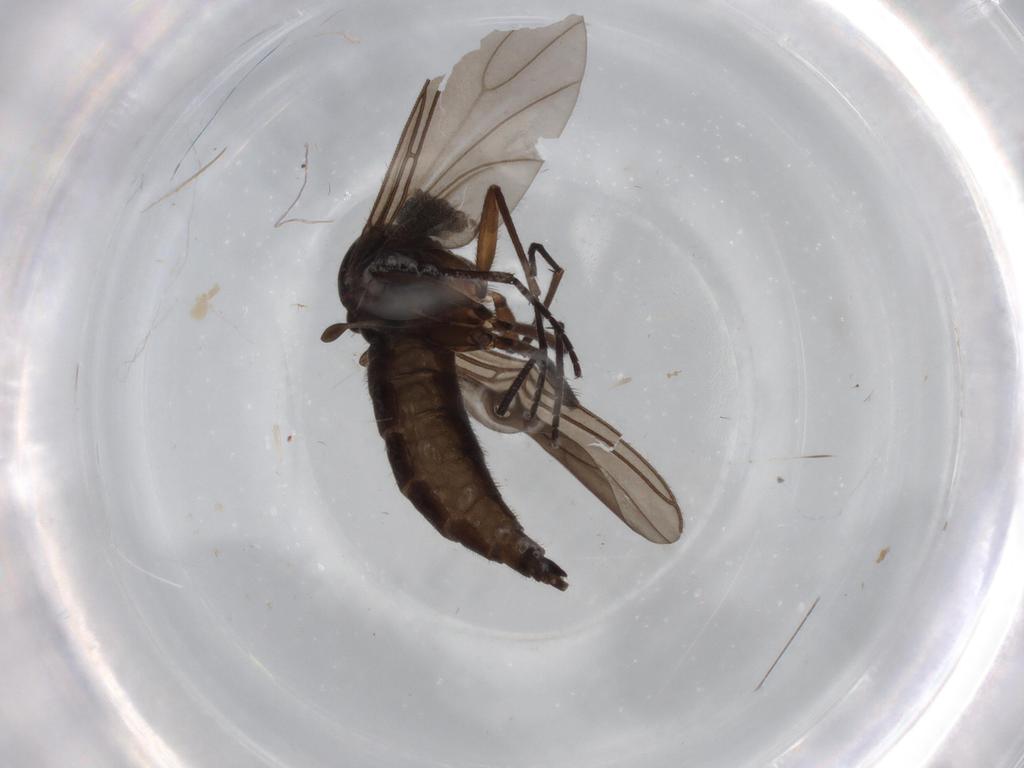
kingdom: Animalia
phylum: Arthropoda
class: Insecta
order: Diptera
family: Sciaridae
